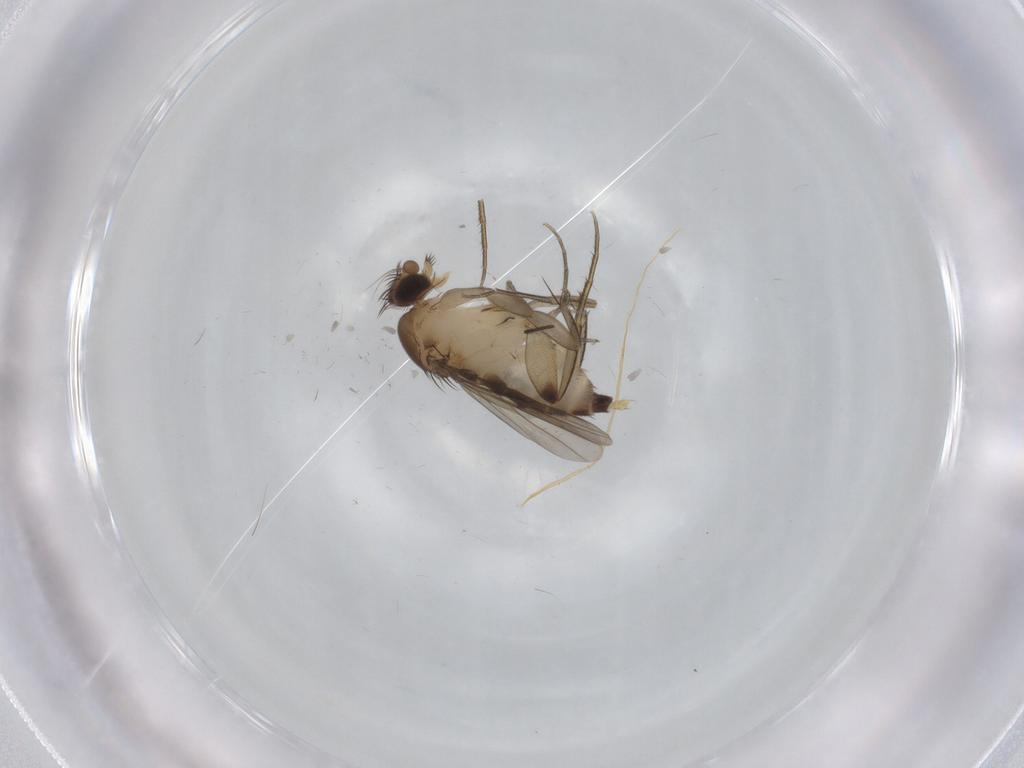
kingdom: Animalia
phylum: Arthropoda
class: Insecta
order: Diptera
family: Cecidomyiidae
